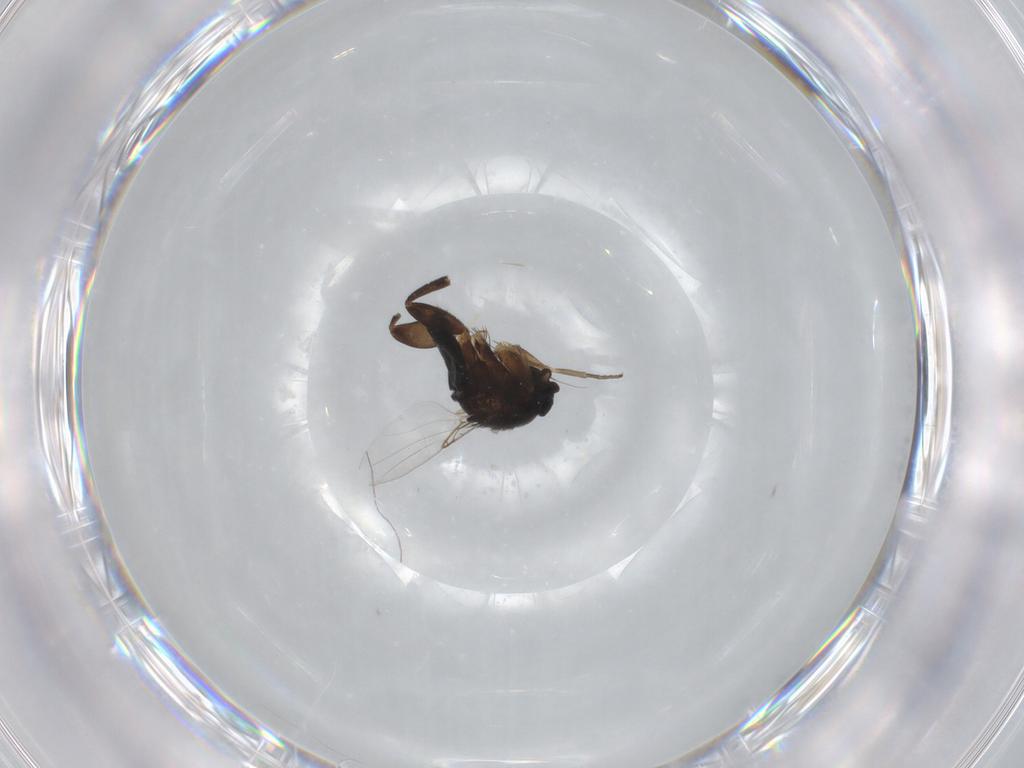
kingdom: Animalia
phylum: Arthropoda
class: Insecta
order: Diptera
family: Phoridae
